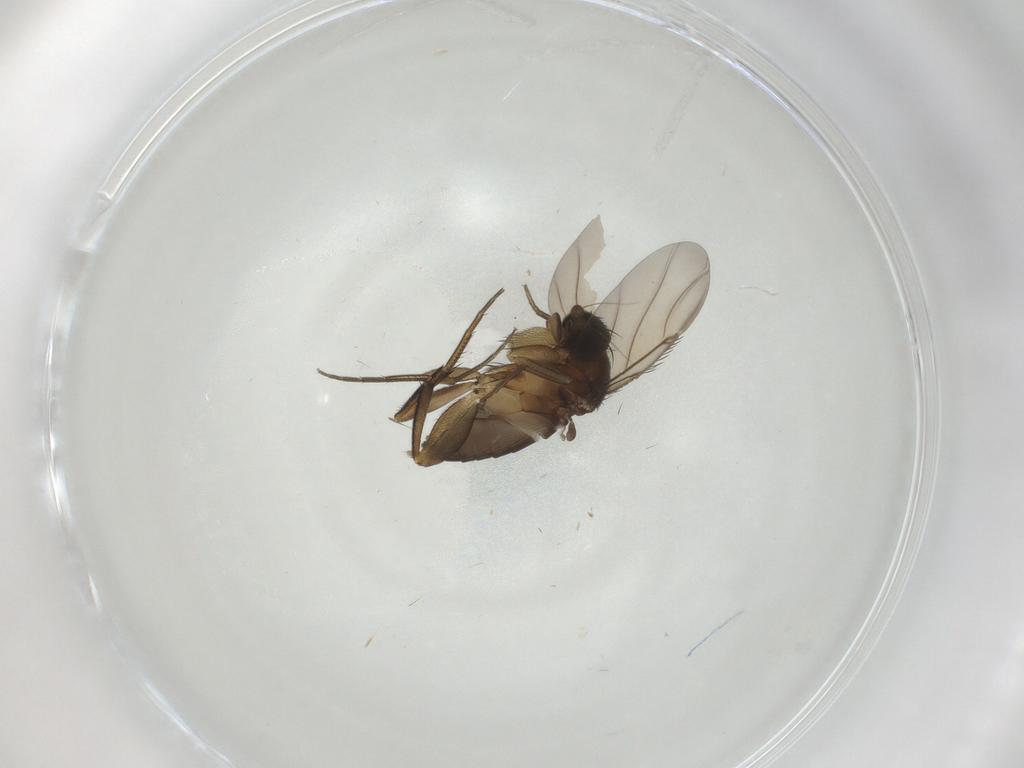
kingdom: Animalia
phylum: Arthropoda
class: Insecta
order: Diptera
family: Phoridae
